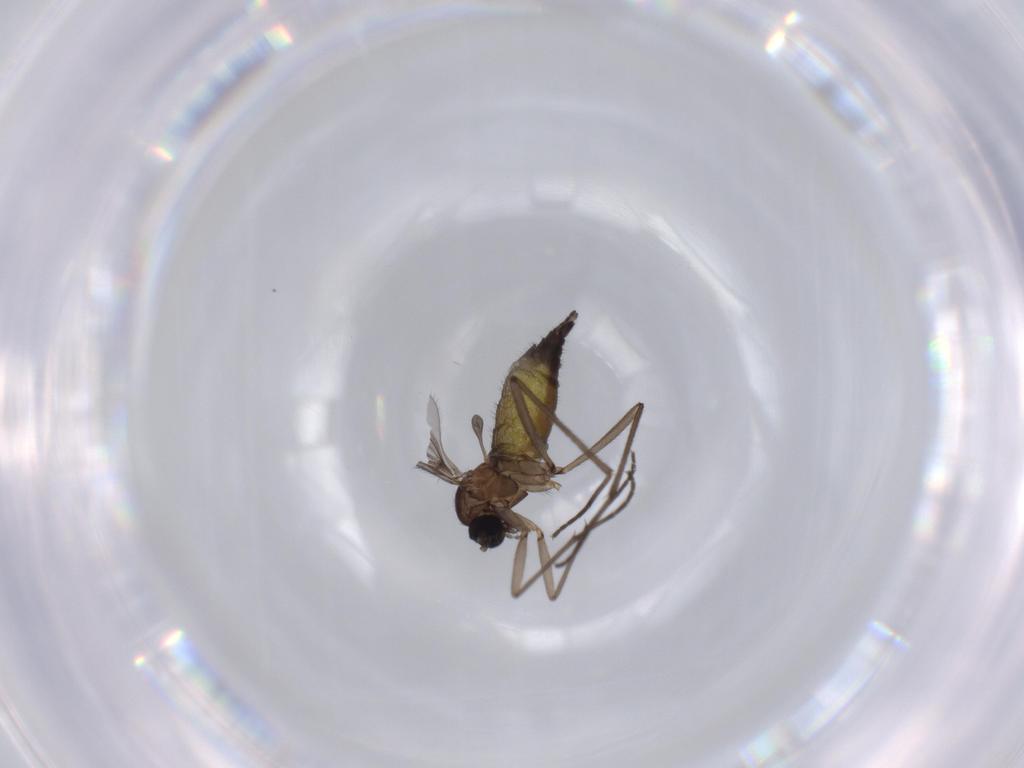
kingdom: Animalia
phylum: Arthropoda
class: Insecta
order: Diptera
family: Sciaridae
